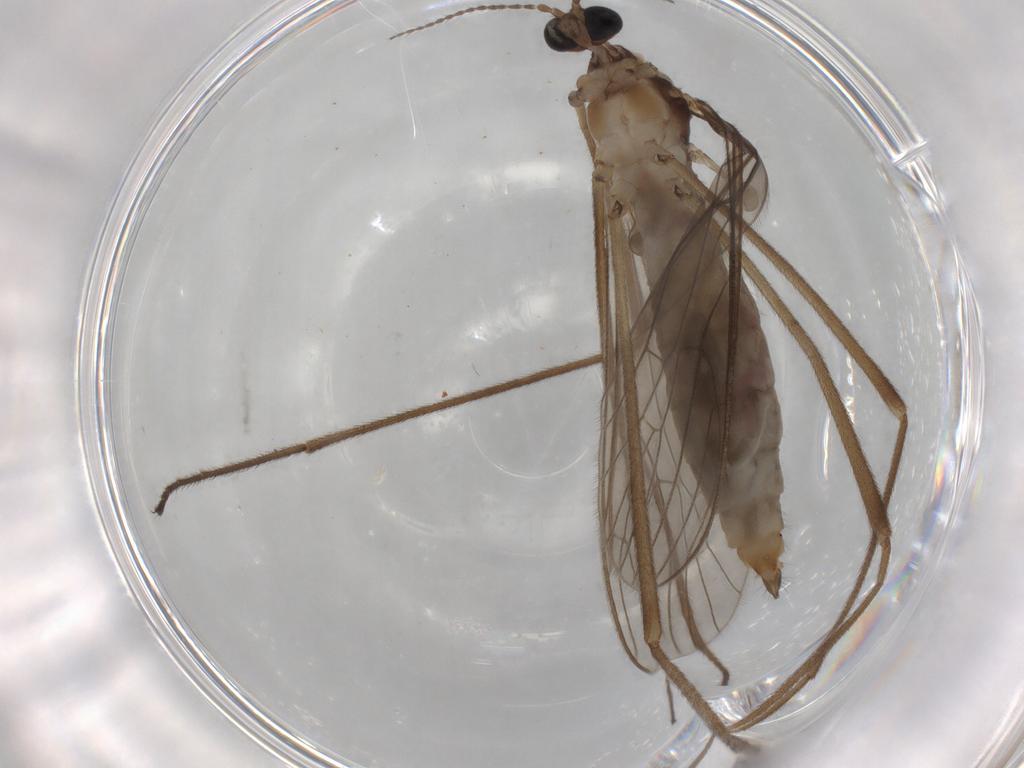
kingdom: Animalia
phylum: Arthropoda
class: Insecta
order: Diptera
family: Limoniidae
